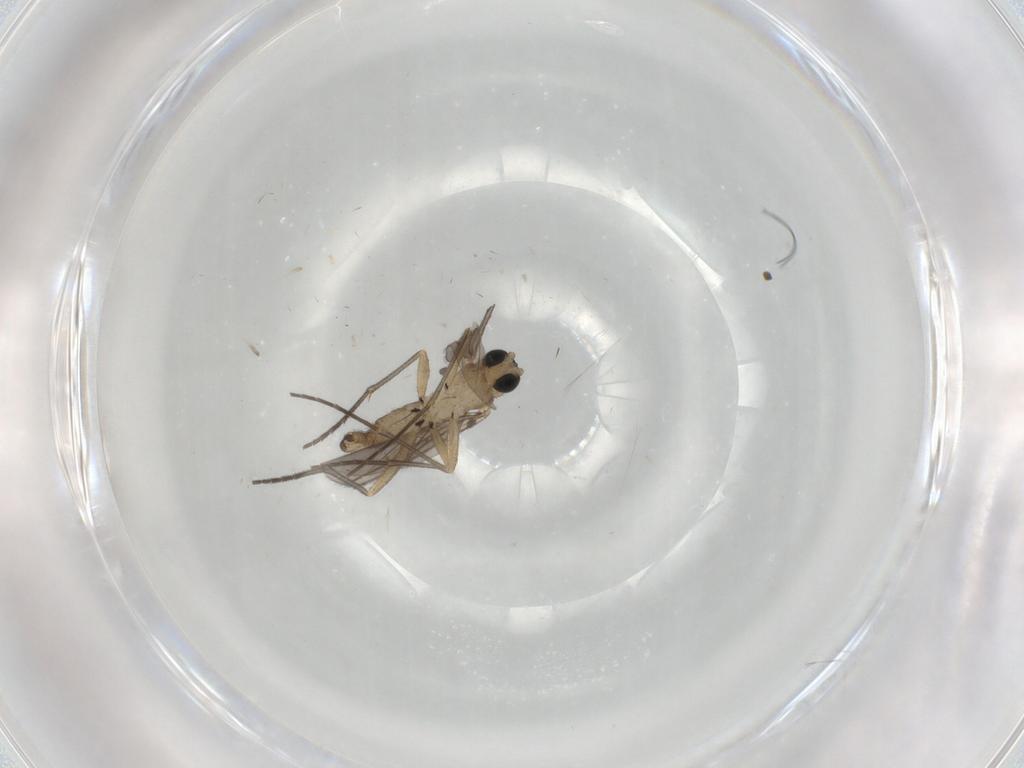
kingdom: Animalia
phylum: Arthropoda
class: Insecta
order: Diptera
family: Sciaridae
